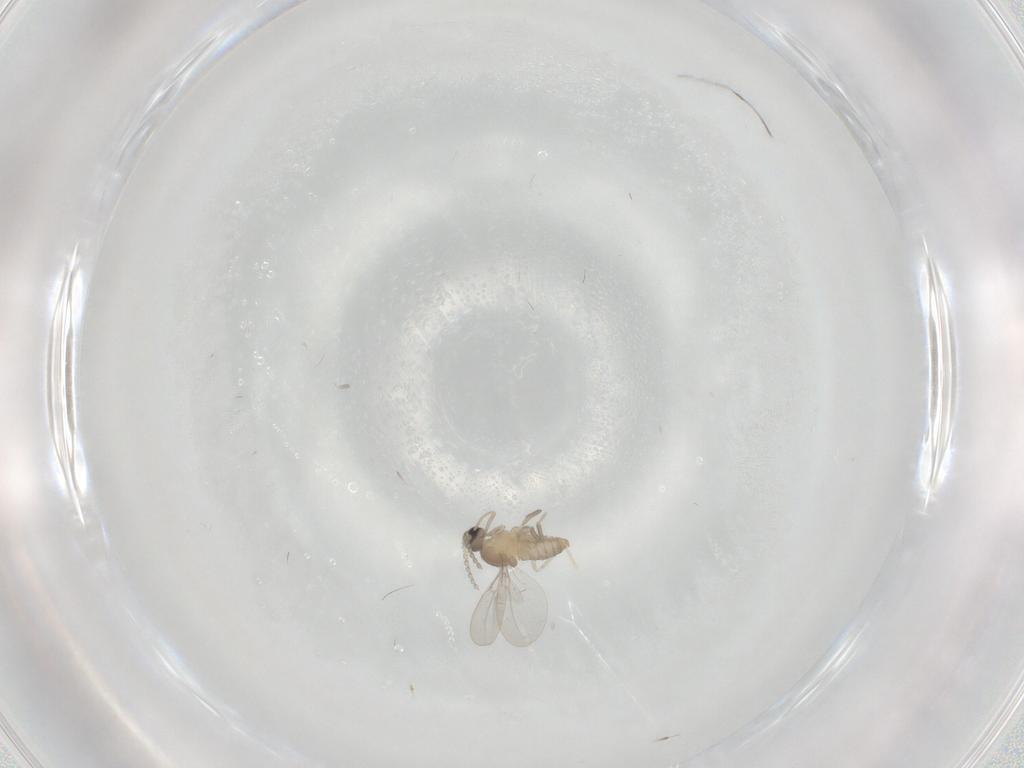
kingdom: Animalia
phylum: Arthropoda
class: Insecta
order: Diptera
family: Cecidomyiidae
